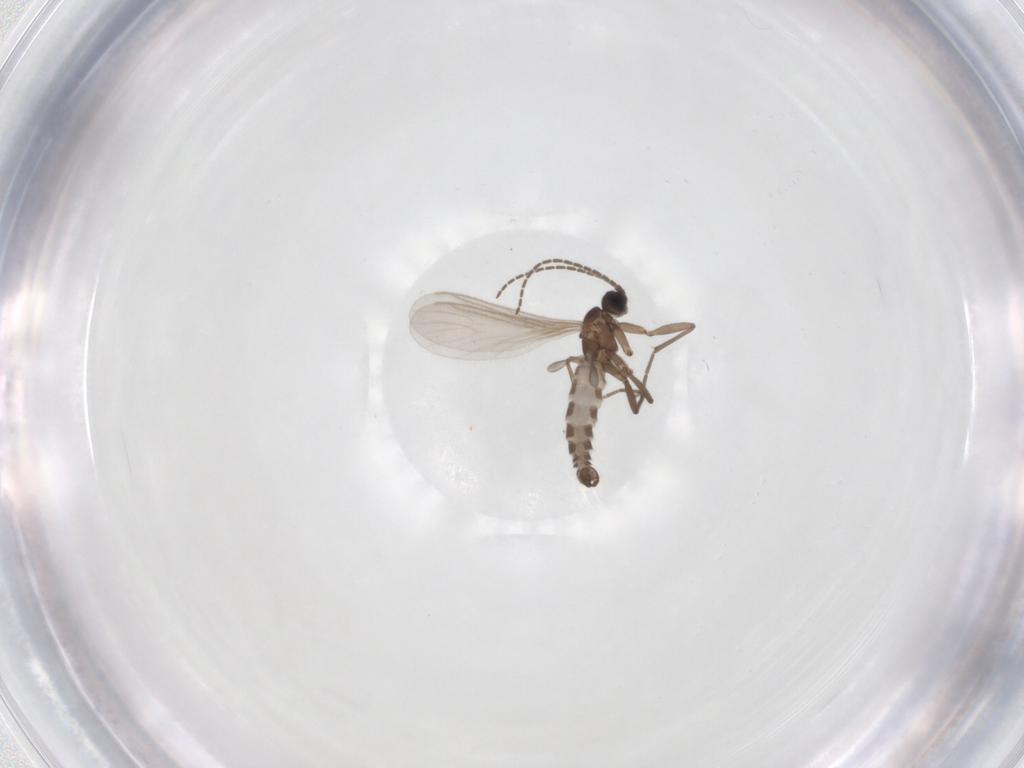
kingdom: Animalia
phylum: Arthropoda
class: Insecta
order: Diptera
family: Sciaridae
